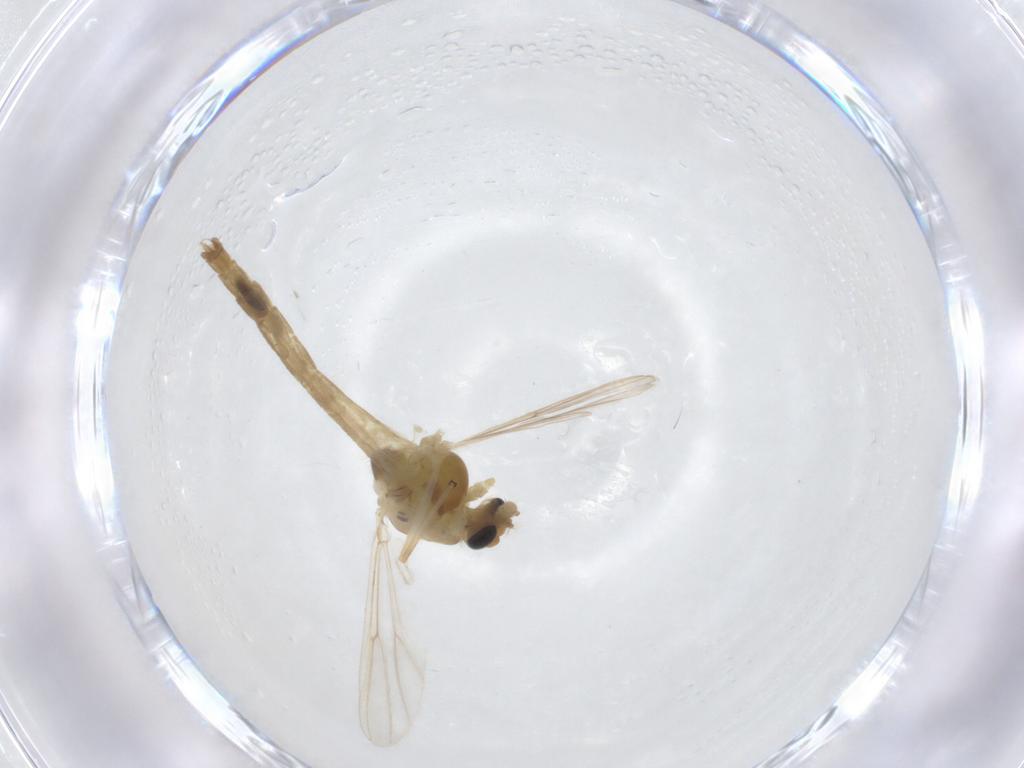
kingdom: Animalia
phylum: Arthropoda
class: Insecta
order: Diptera
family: Chironomidae
